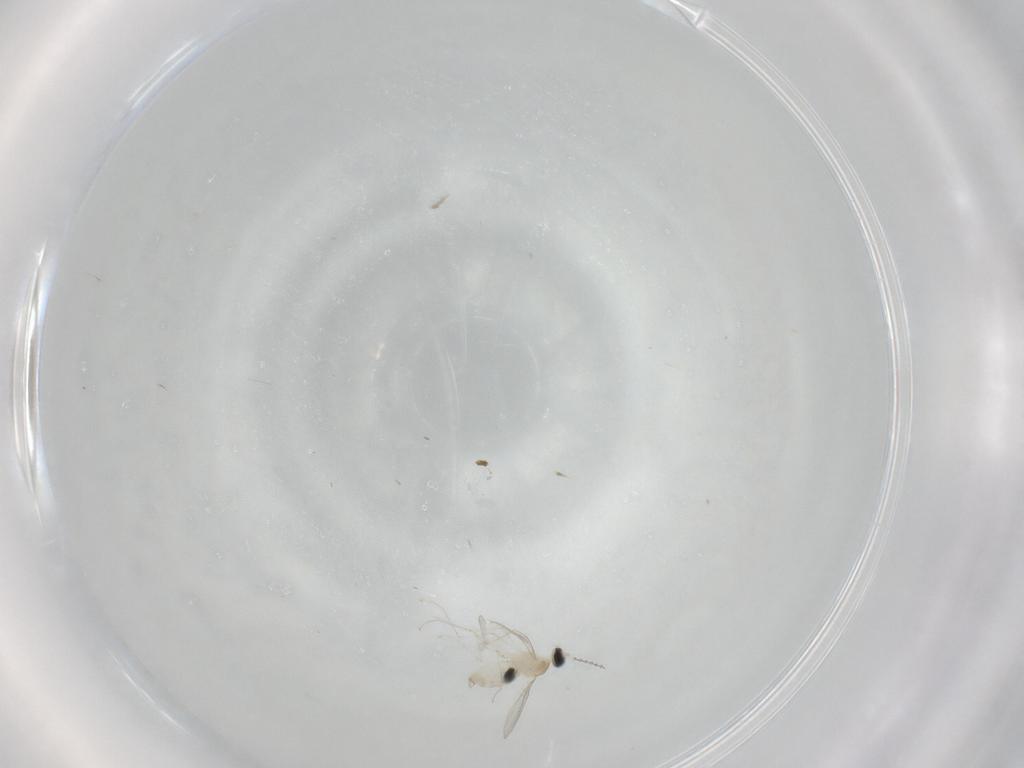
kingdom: Animalia
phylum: Arthropoda
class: Insecta
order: Diptera
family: Cecidomyiidae
